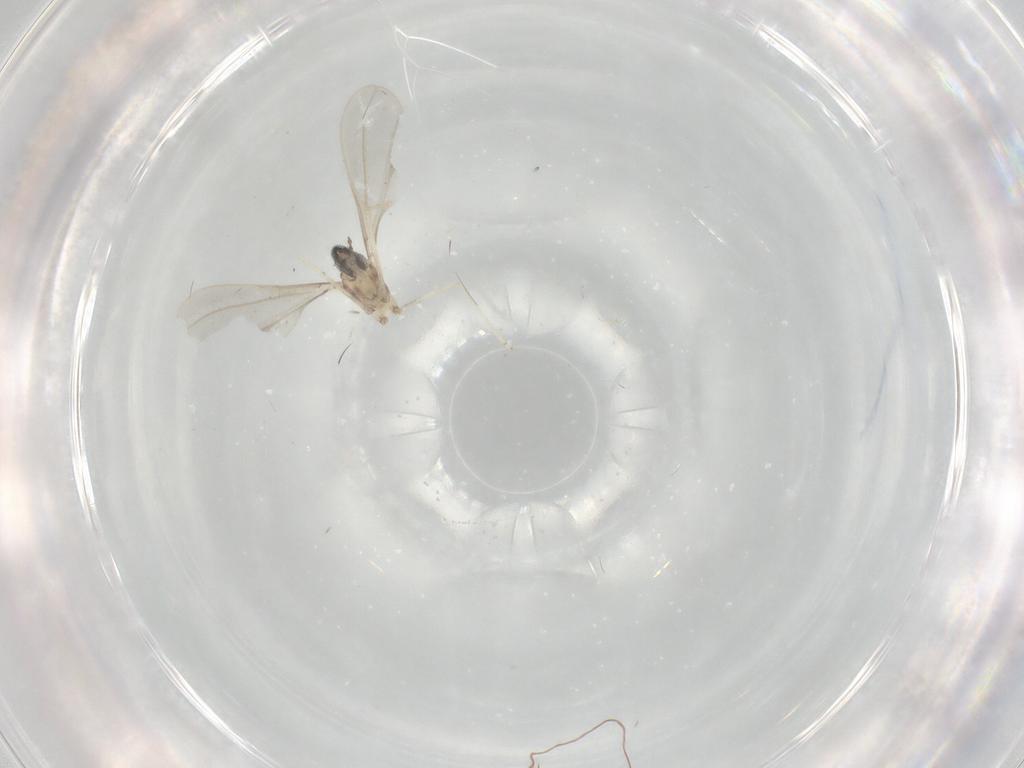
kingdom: Animalia
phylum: Arthropoda
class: Insecta
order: Diptera
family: Cecidomyiidae
